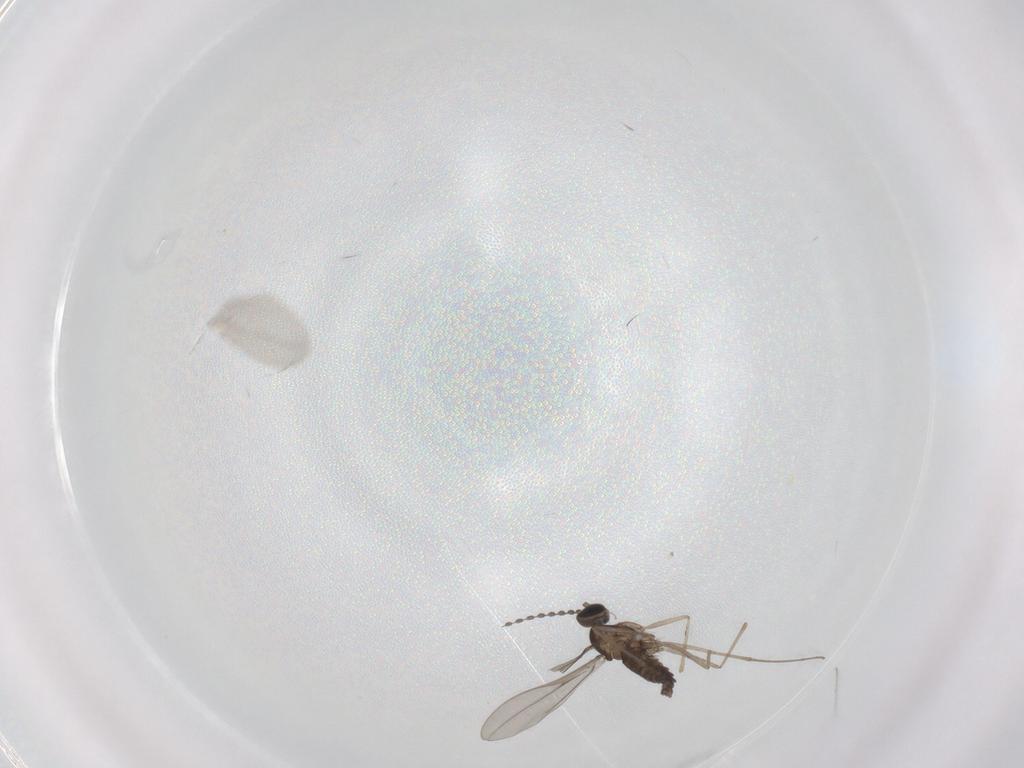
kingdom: Animalia
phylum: Arthropoda
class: Insecta
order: Diptera
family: Cecidomyiidae
